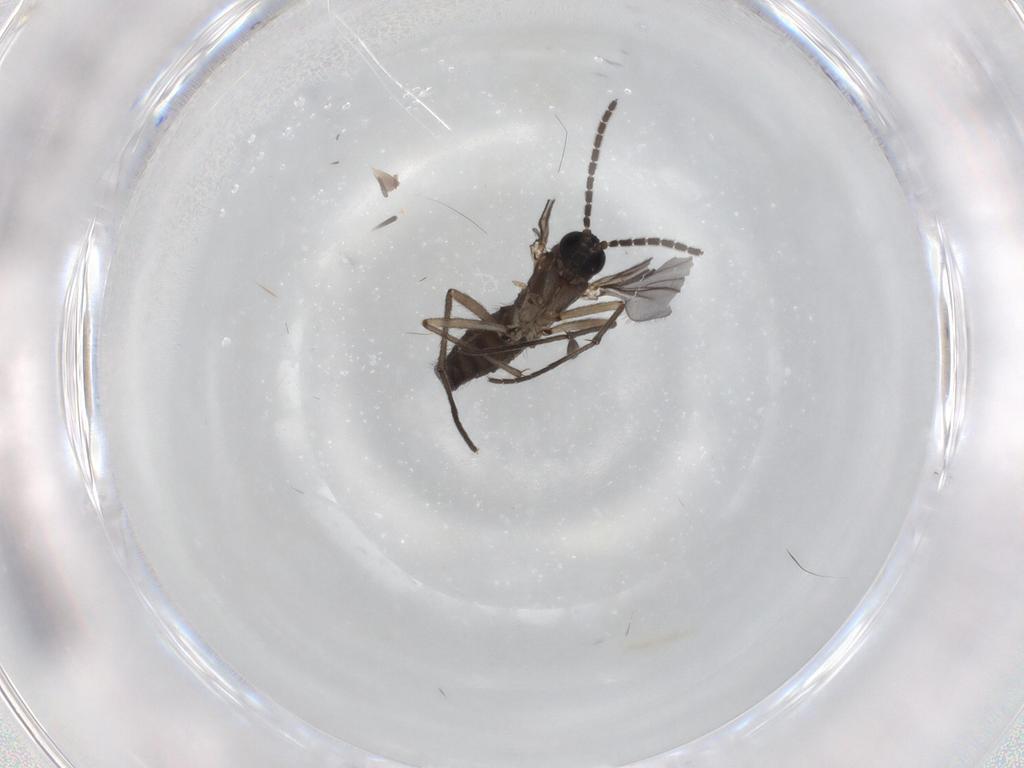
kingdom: Animalia
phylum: Arthropoda
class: Insecta
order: Diptera
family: Sciaridae
